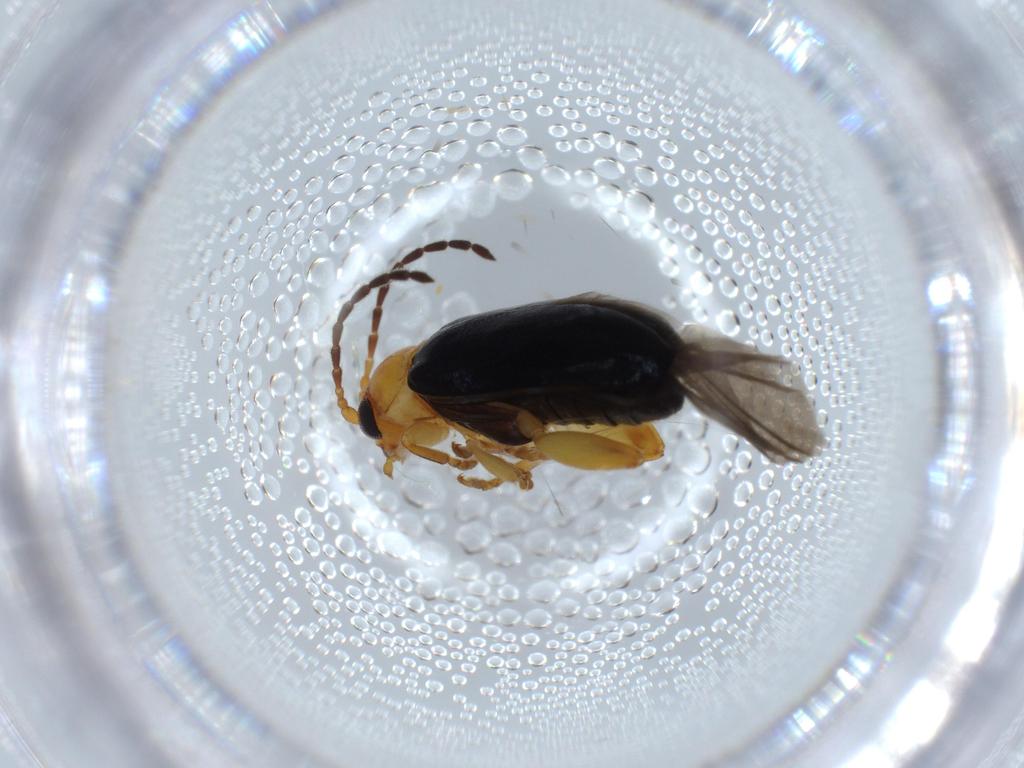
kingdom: Animalia
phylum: Arthropoda
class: Insecta
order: Coleoptera
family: Chrysomelidae
